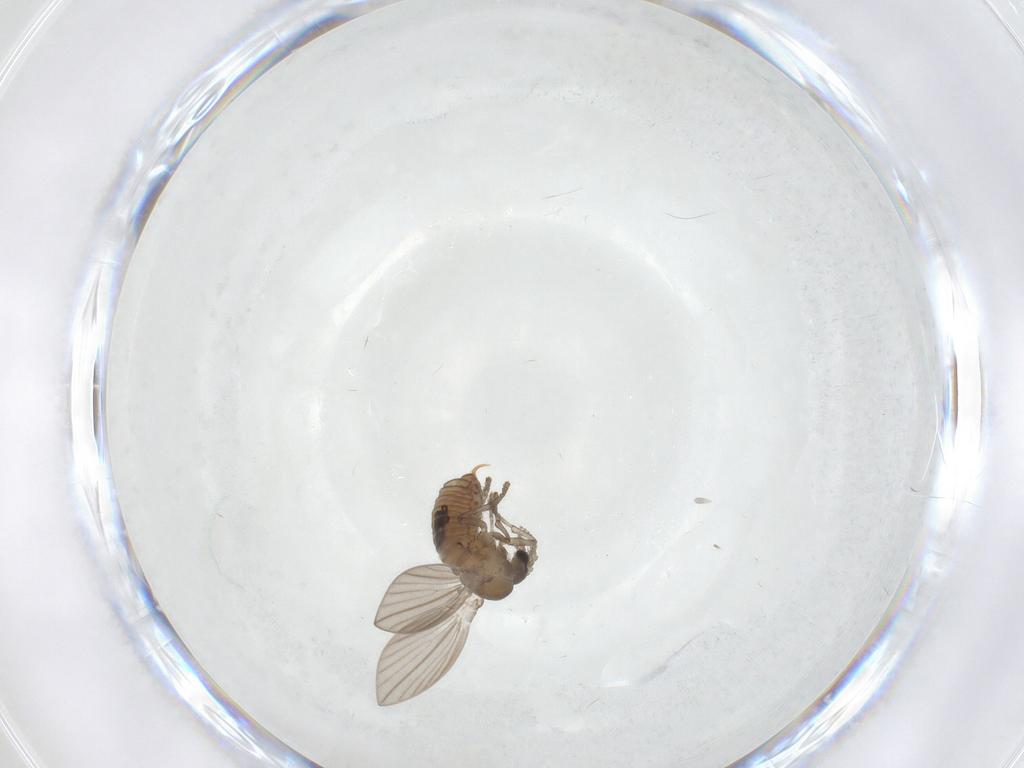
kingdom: Animalia
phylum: Arthropoda
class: Insecta
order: Diptera
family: Psychodidae
